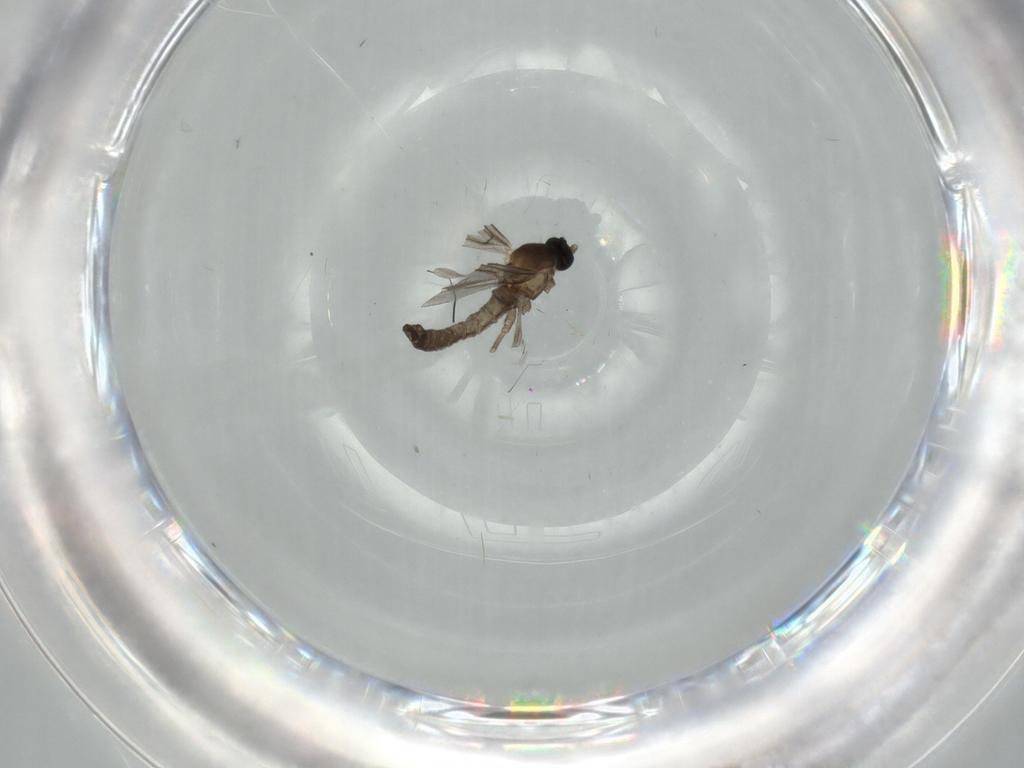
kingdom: Animalia
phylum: Arthropoda
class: Insecta
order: Diptera
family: Cecidomyiidae
